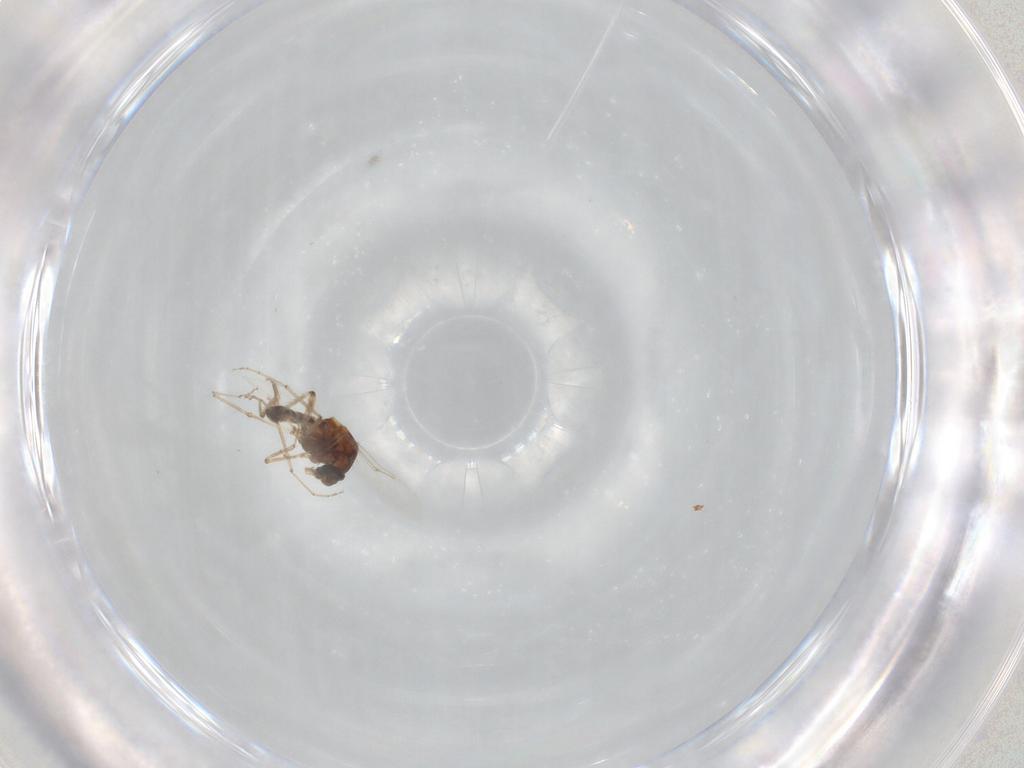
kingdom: Animalia
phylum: Arthropoda
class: Insecta
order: Diptera
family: Ceratopogonidae
